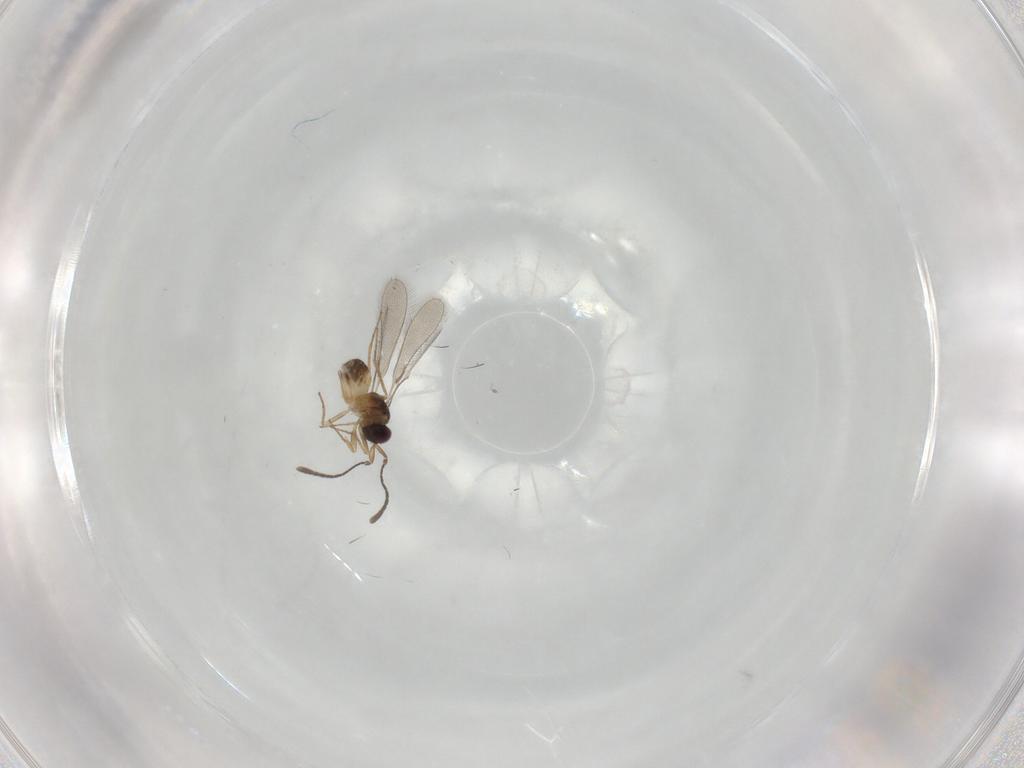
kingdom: Animalia
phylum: Arthropoda
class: Insecta
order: Hymenoptera
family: Mymaridae
